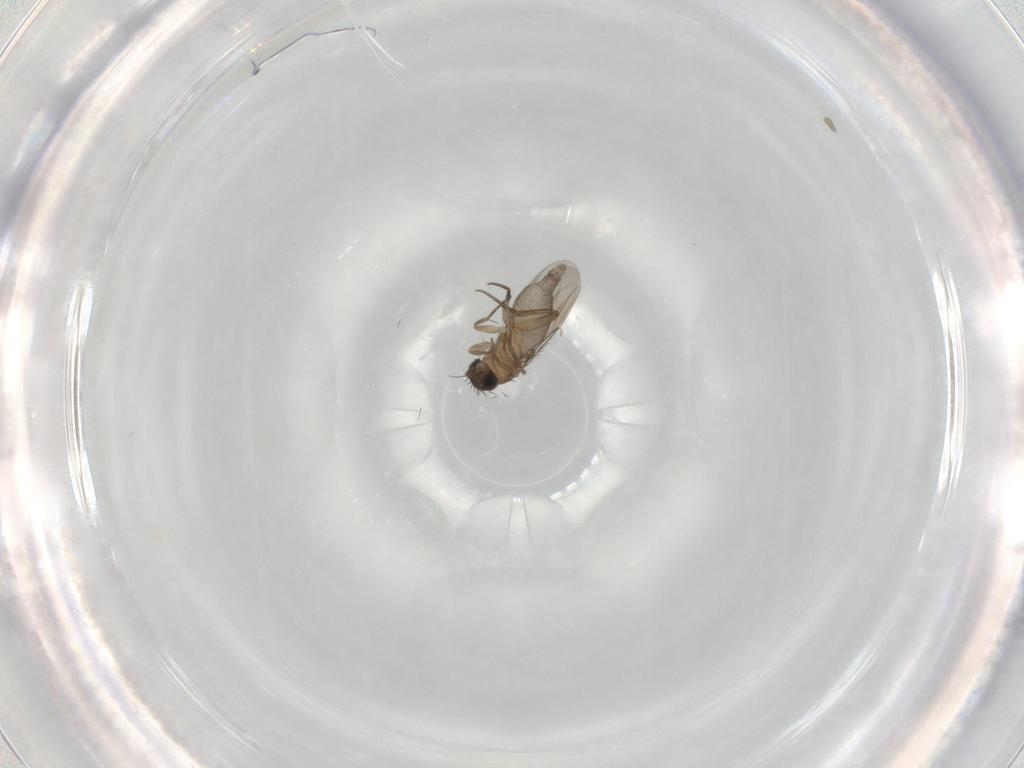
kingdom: Animalia
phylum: Arthropoda
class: Insecta
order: Diptera
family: Phoridae
